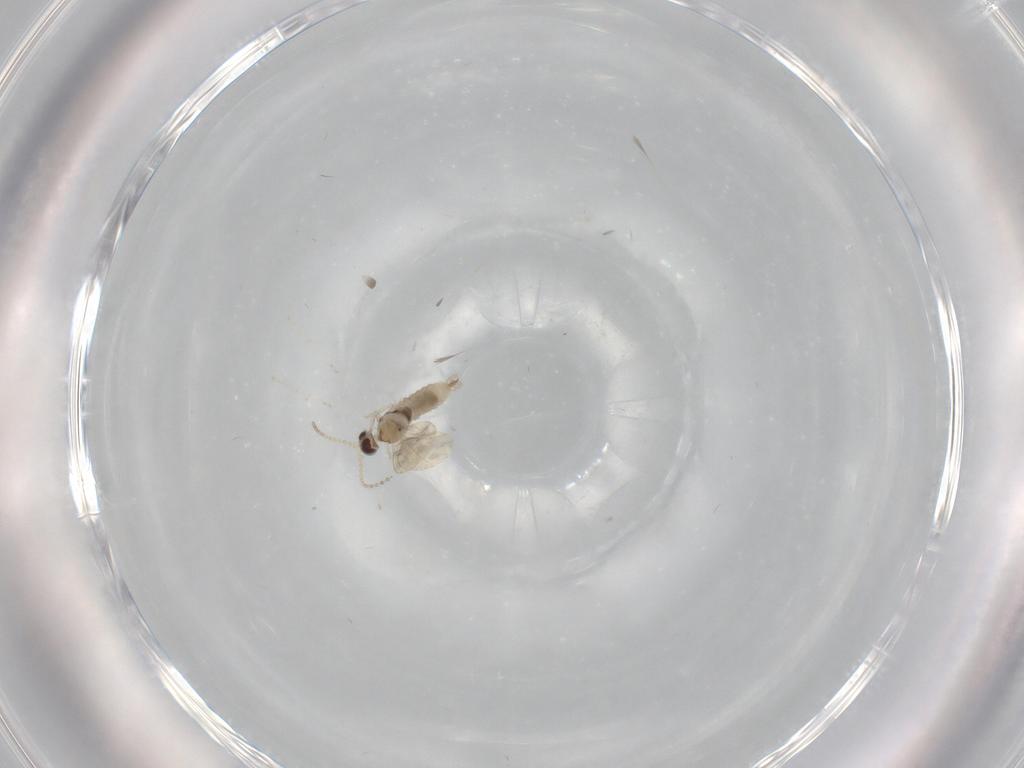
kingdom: Animalia
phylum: Arthropoda
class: Insecta
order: Diptera
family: Cecidomyiidae
